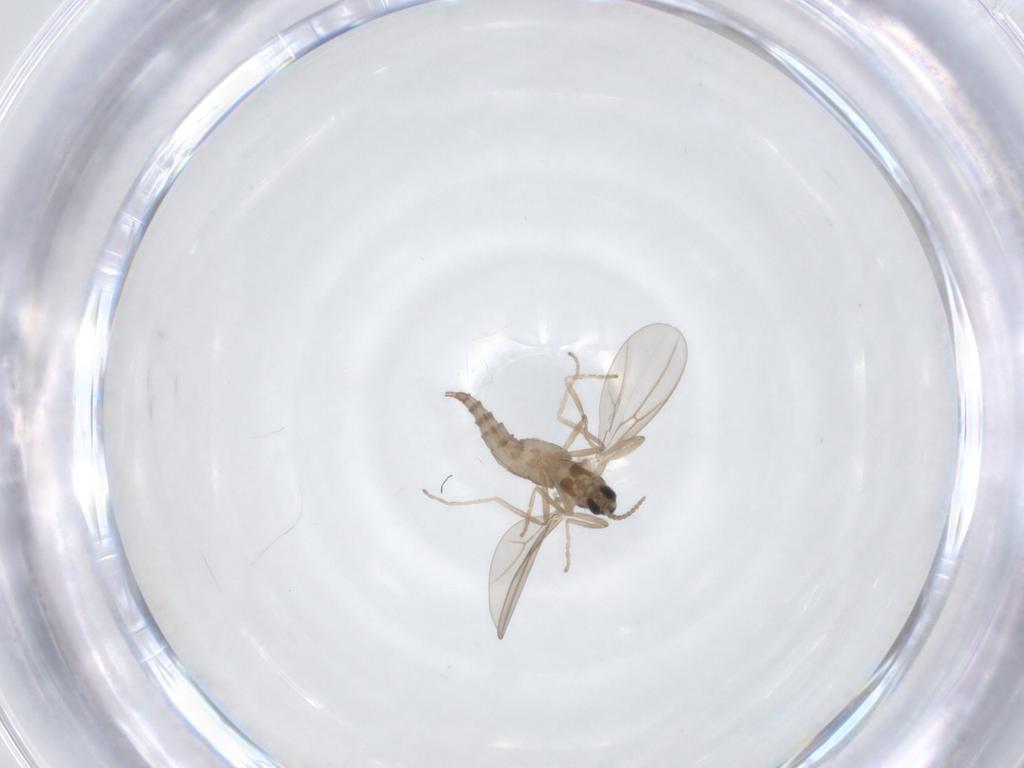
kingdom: Animalia
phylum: Arthropoda
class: Insecta
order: Diptera
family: Cecidomyiidae
